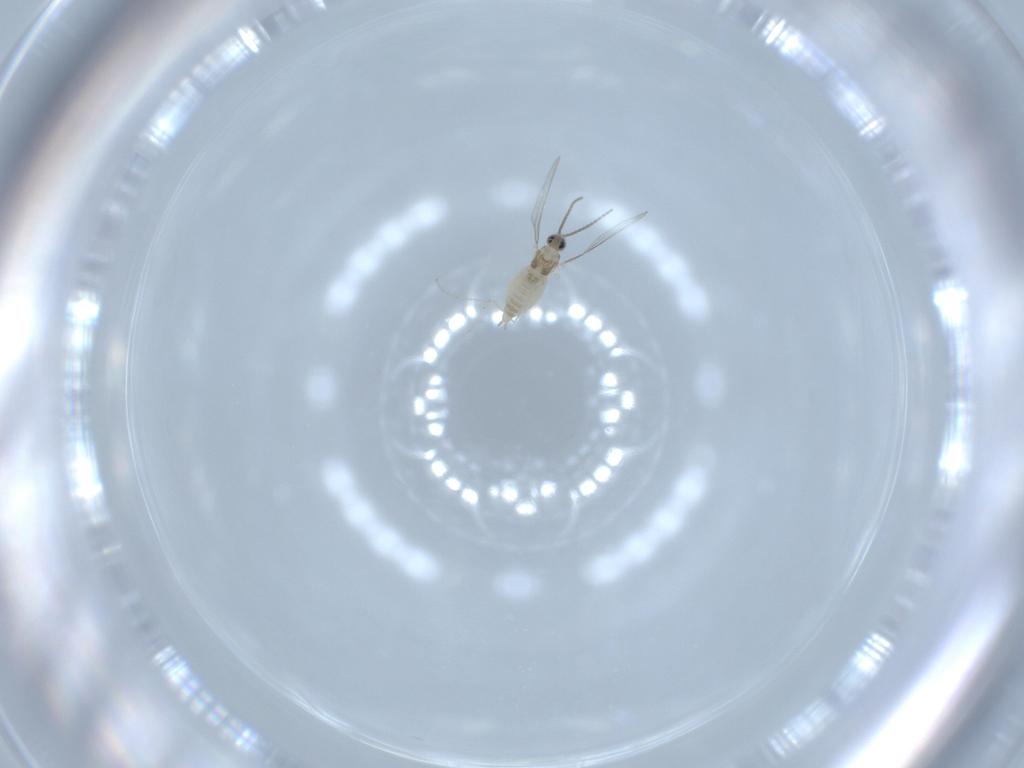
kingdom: Animalia
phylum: Arthropoda
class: Insecta
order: Diptera
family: Cecidomyiidae
